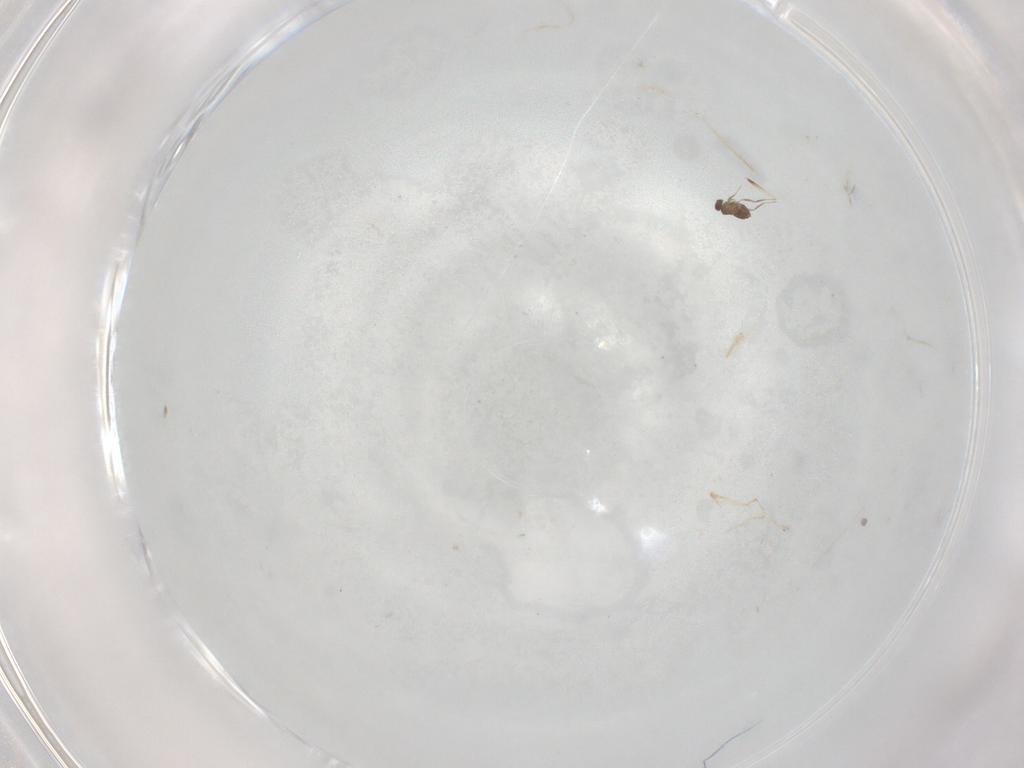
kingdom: Animalia
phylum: Arthropoda
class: Insecta
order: Hymenoptera
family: Mymaridae
